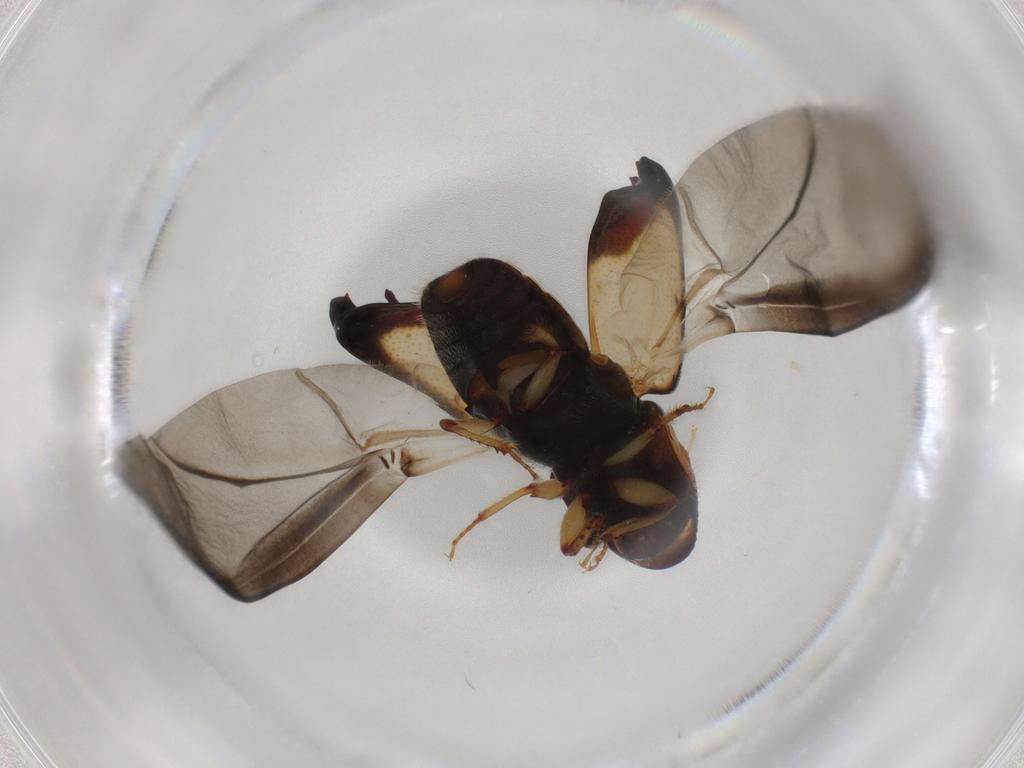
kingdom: Animalia
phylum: Arthropoda
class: Insecta
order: Coleoptera
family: Curculionidae
